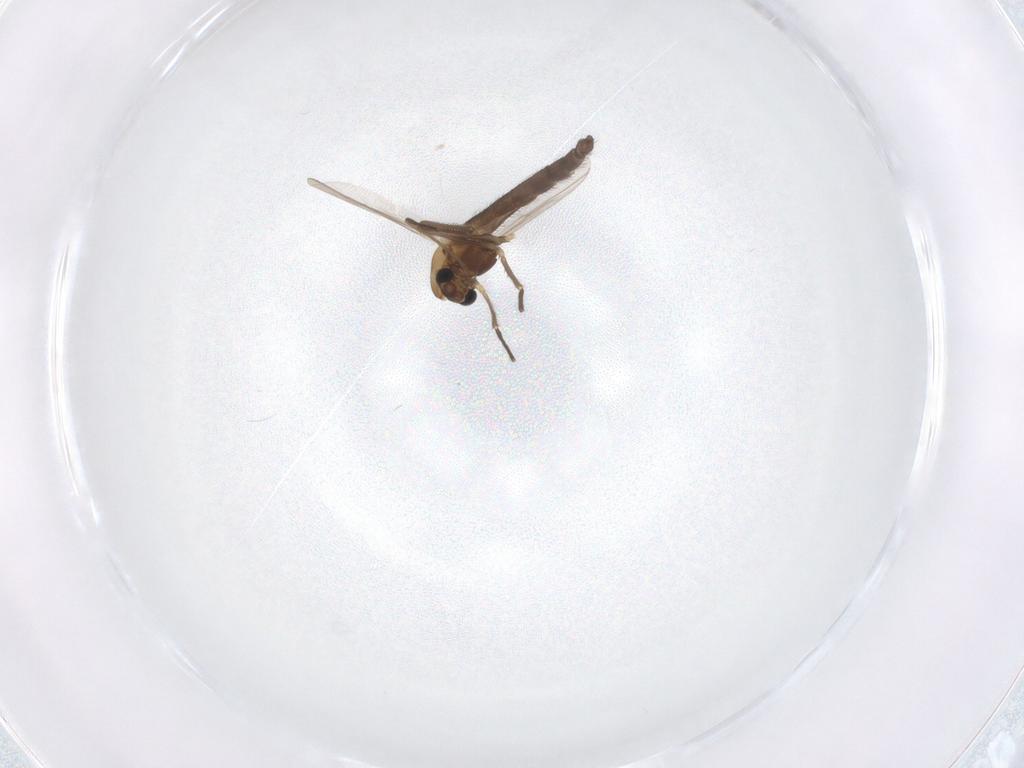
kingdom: Animalia
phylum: Arthropoda
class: Insecta
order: Diptera
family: Chironomidae
